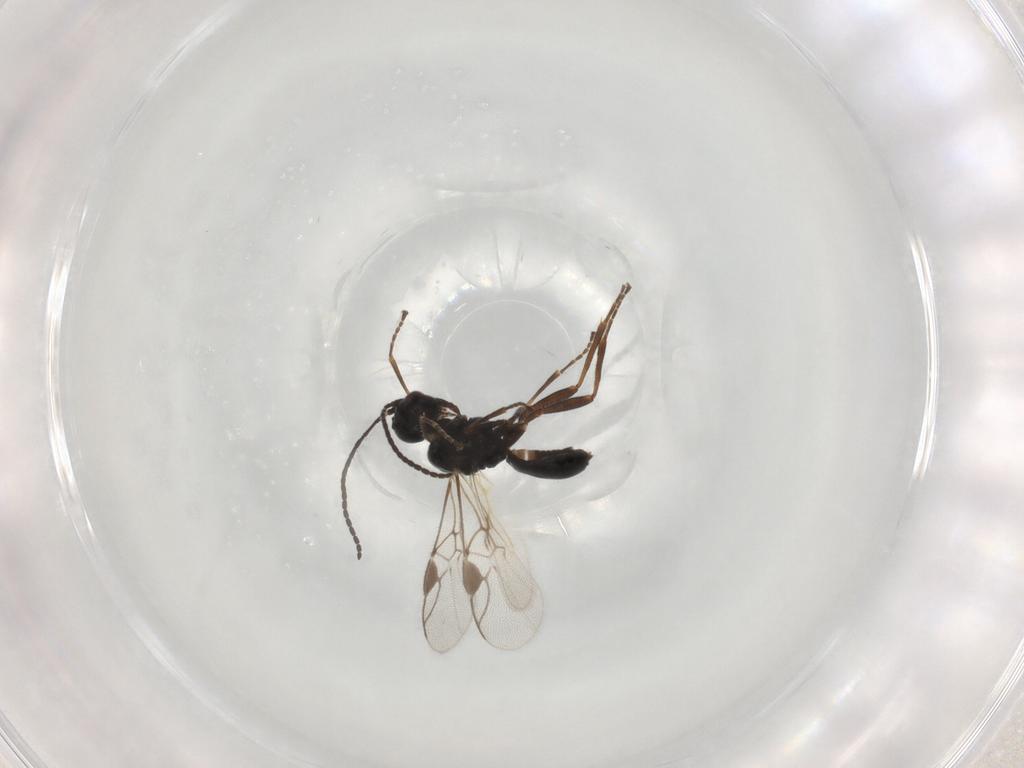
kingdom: Animalia
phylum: Arthropoda
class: Insecta
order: Hymenoptera
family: Braconidae
